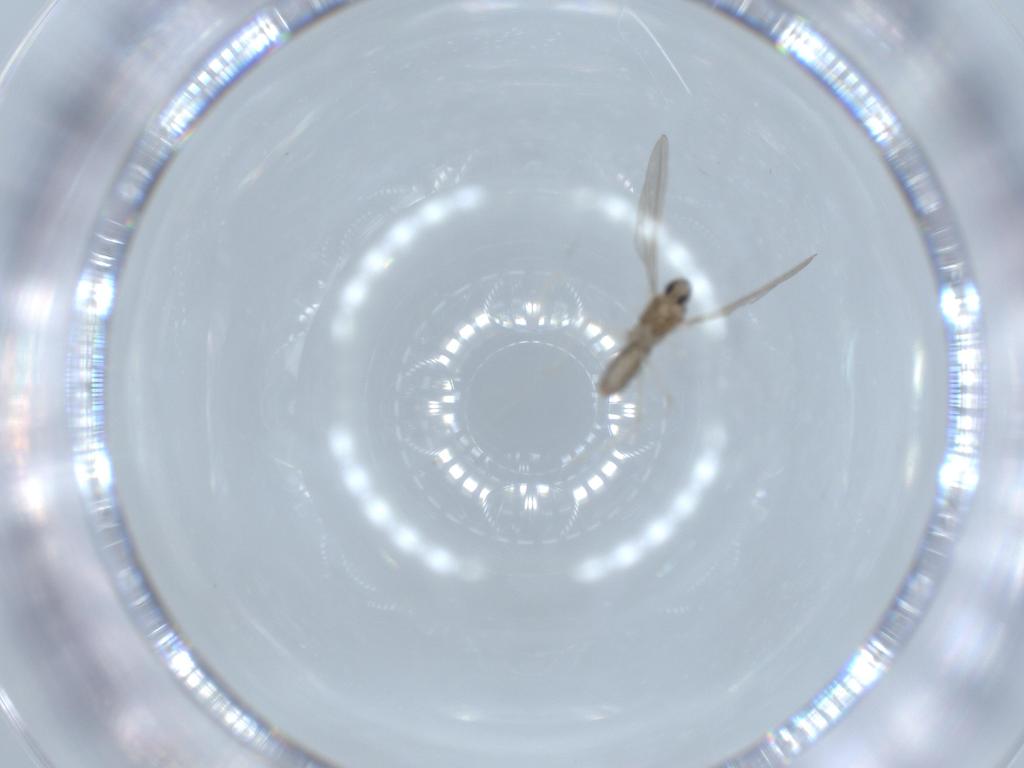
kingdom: Animalia
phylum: Arthropoda
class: Insecta
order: Diptera
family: Cecidomyiidae
